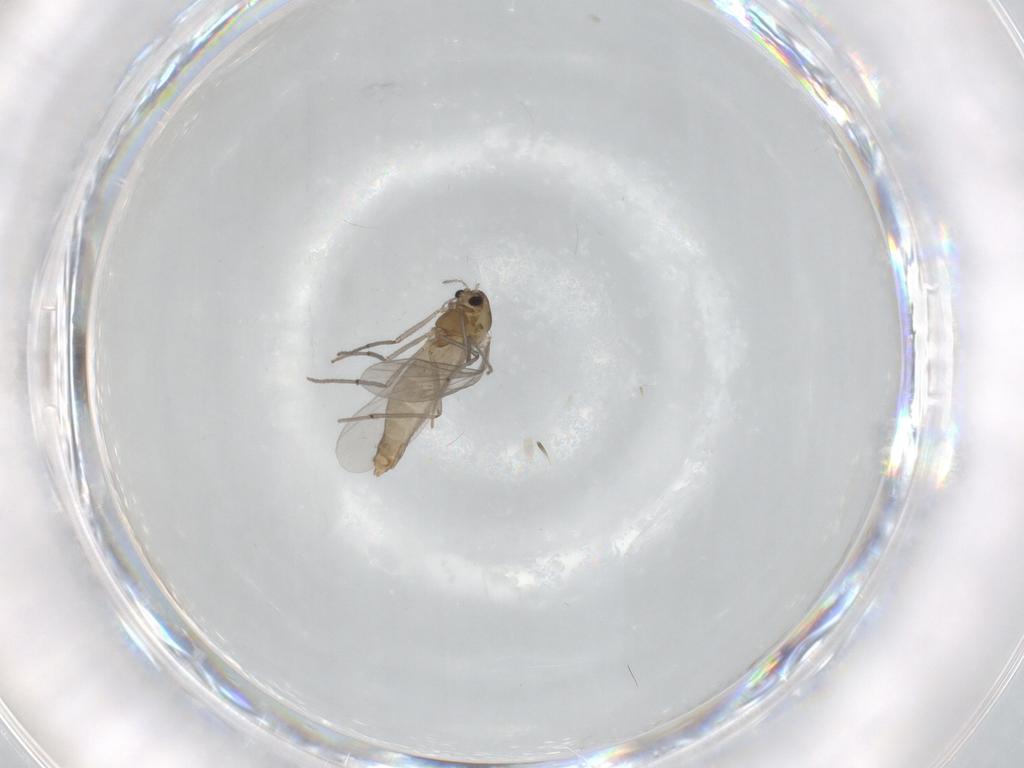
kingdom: Animalia
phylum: Arthropoda
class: Insecta
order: Diptera
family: Chironomidae
